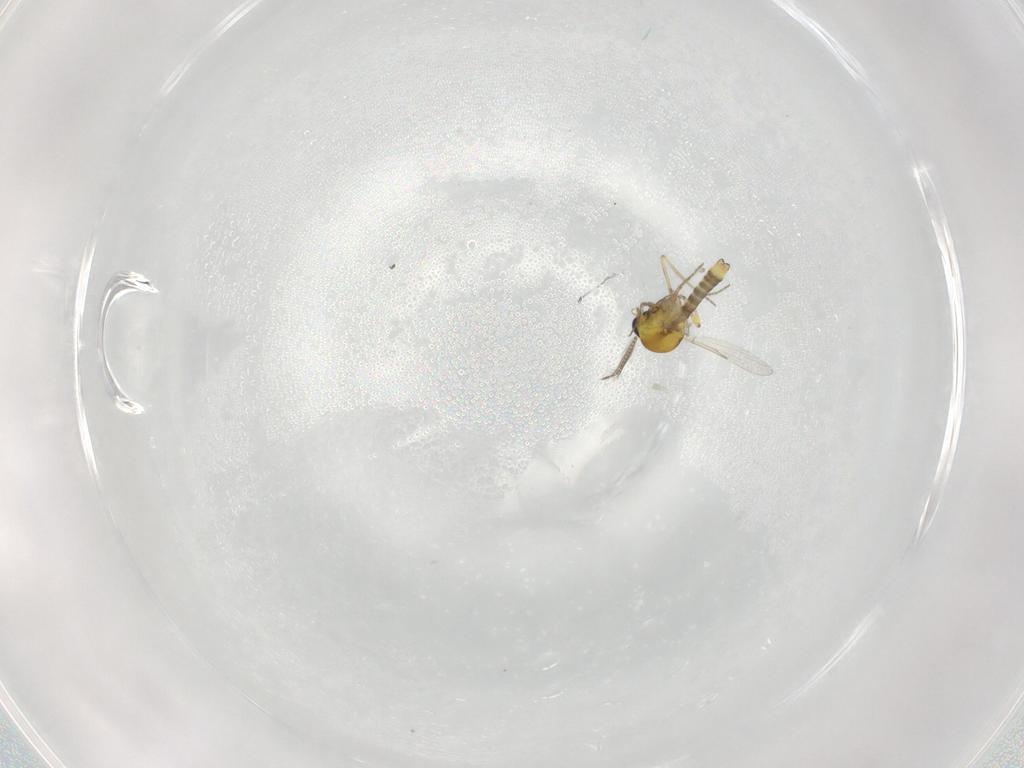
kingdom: Animalia
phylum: Arthropoda
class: Insecta
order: Diptera
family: Ceratopogonidae
